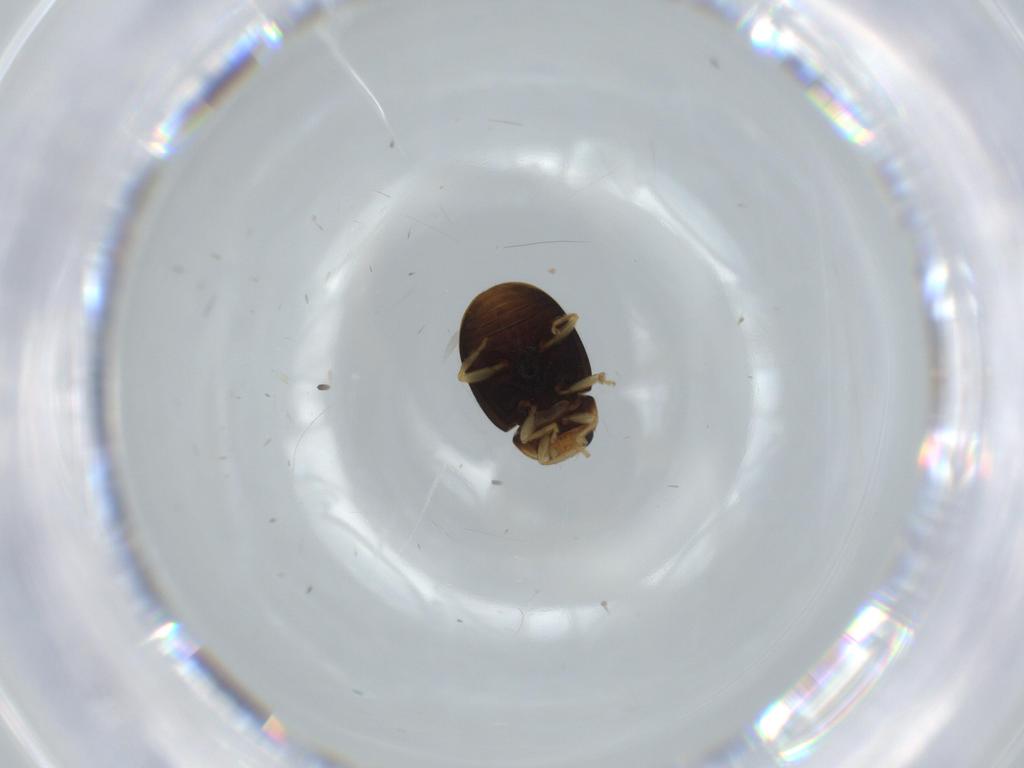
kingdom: Animalia
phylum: Arthropoda
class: Insecta
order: Coleoptera
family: Coccinellidae
